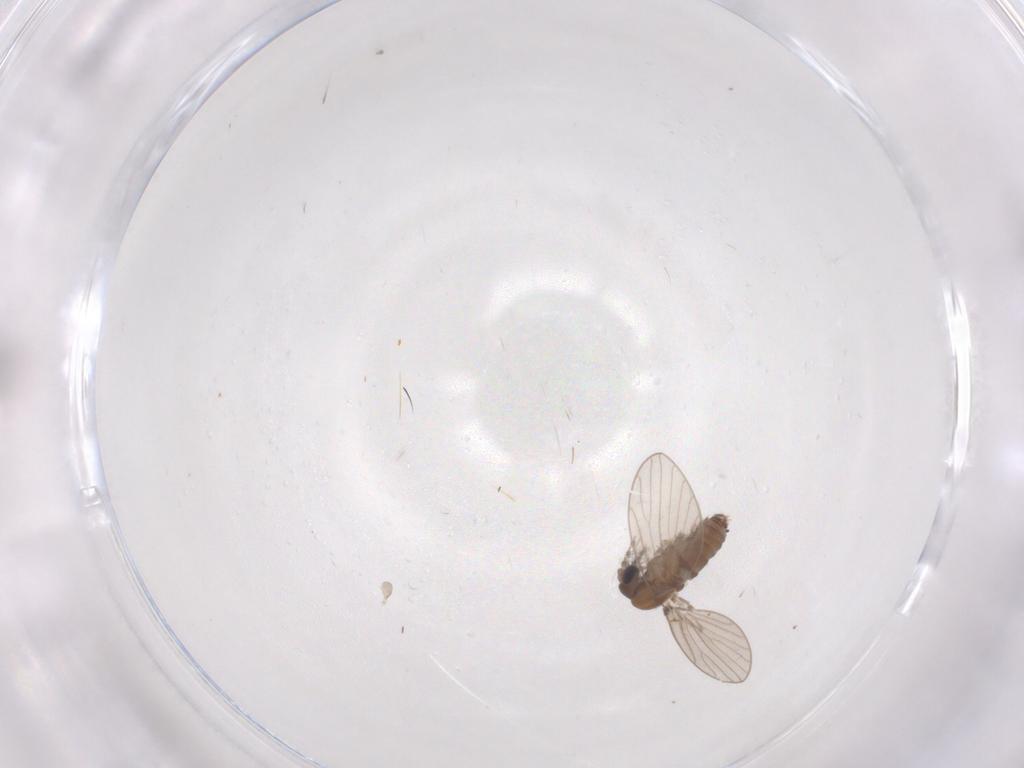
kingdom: Animalia
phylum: Arthropoda
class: Insecta
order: Diptera
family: Psychodidae
